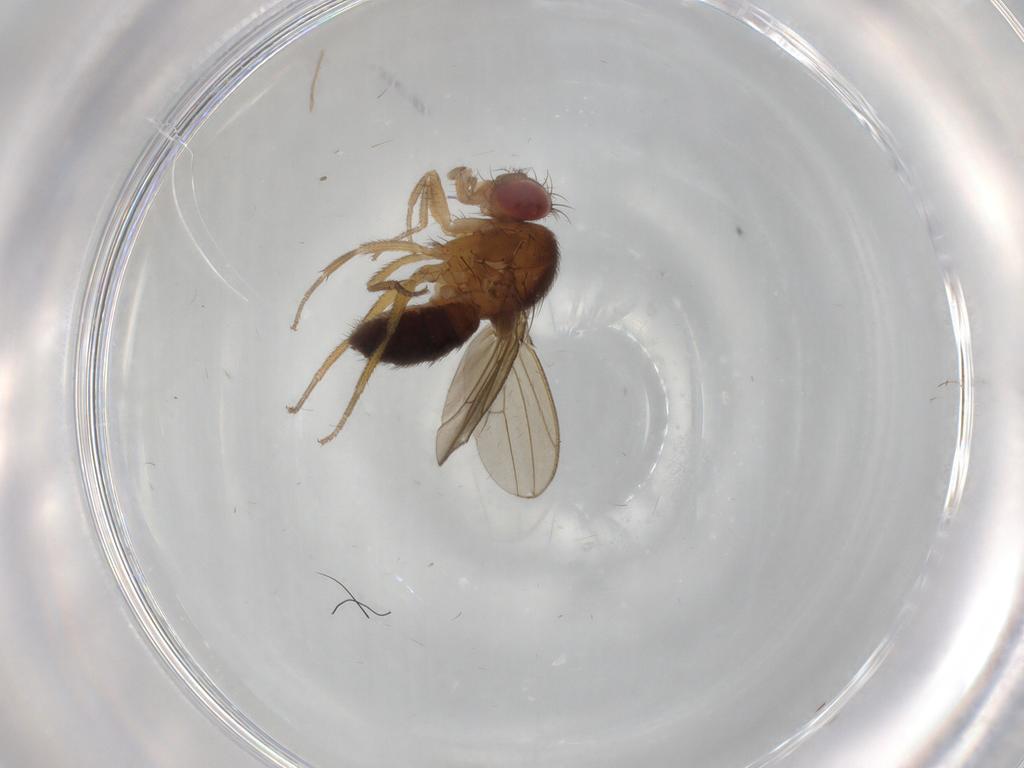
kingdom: Animalia
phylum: Arthropoda
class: Insecta
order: Diptera
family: Drosophilidae
